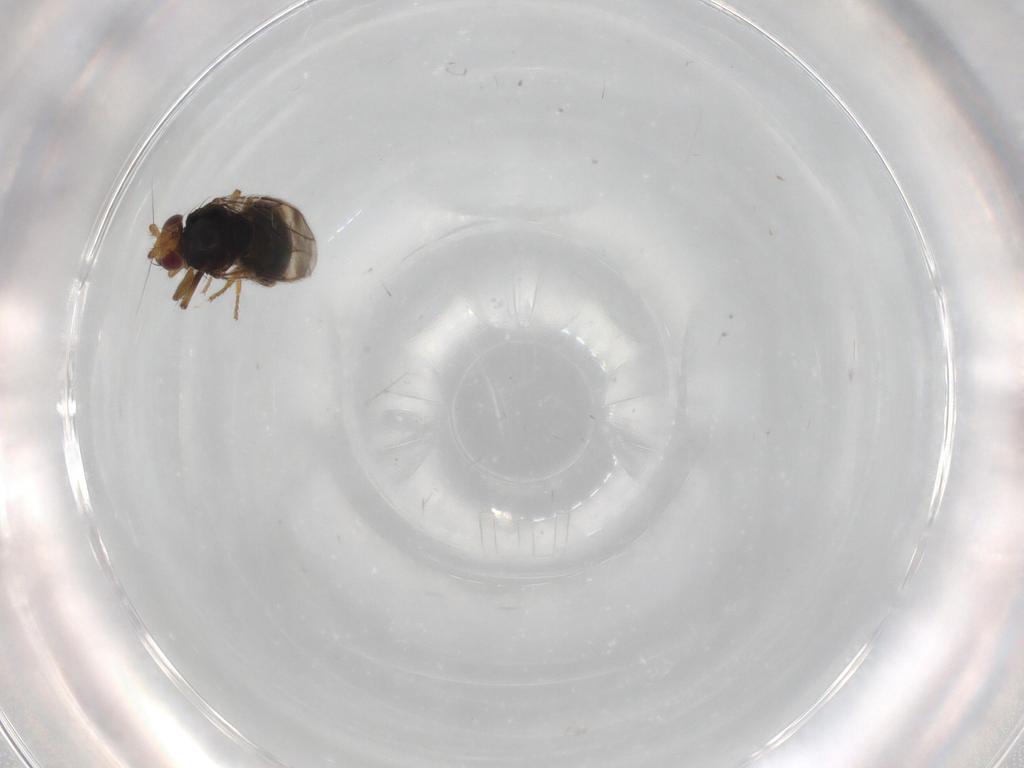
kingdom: Animalia
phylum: Arthropoda
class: Insecta
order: Diptera
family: Sphaeroceridae
